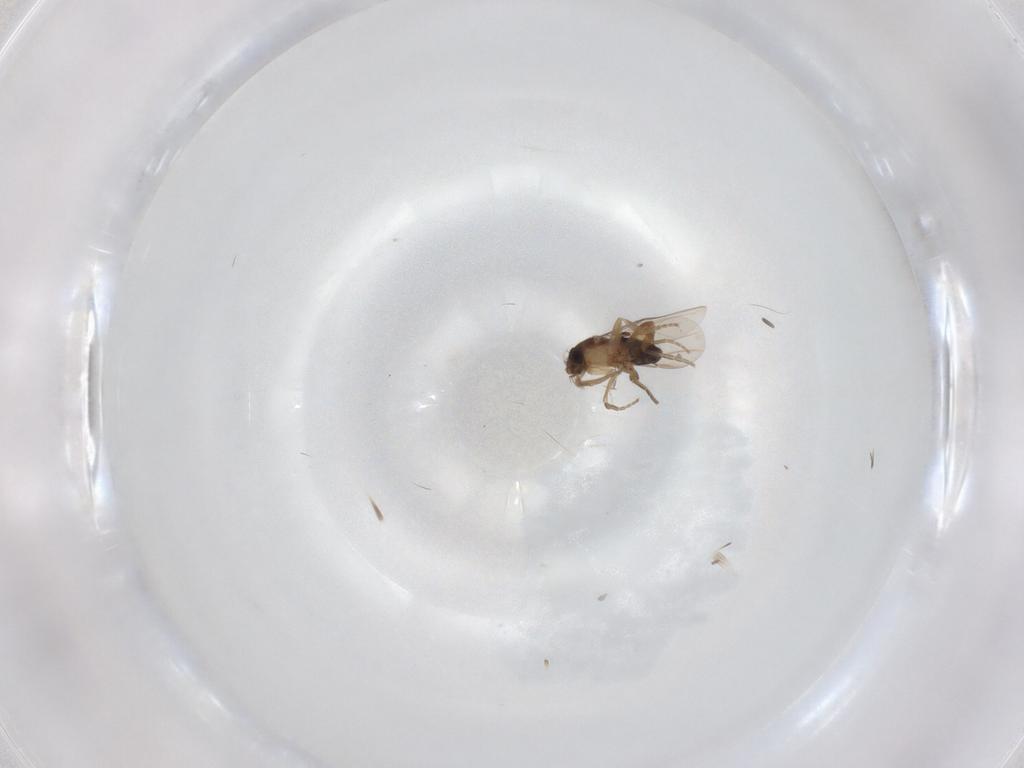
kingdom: Animalia
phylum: Arthropoda
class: Insecta
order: Diptera
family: Phoridae
